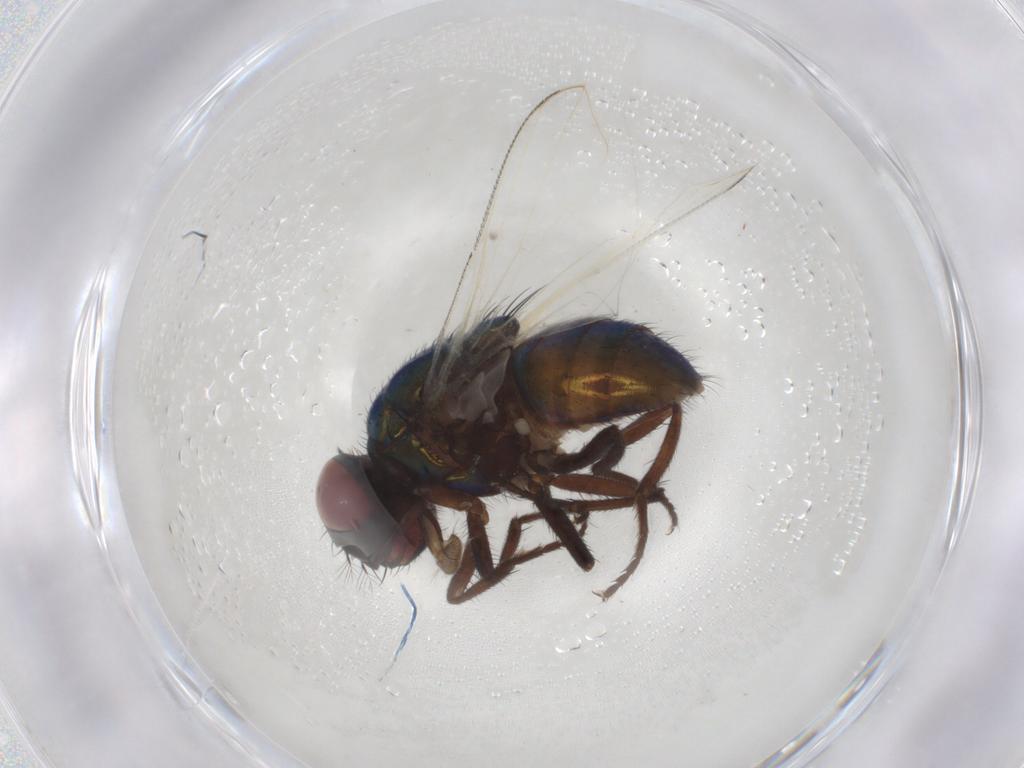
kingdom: Animalia
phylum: Arthropoda
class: Insecta
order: Diptera
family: Muscidae
